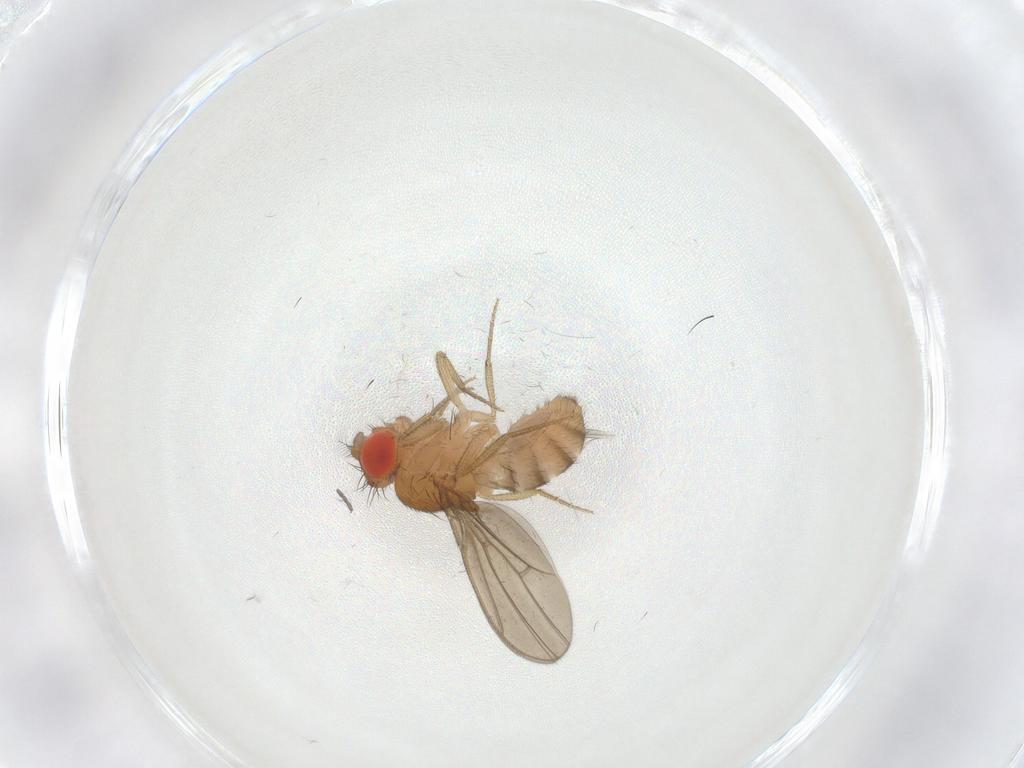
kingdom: Animalia
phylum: Arthropoda
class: Insecta
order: Diptera
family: Drosophilidae
